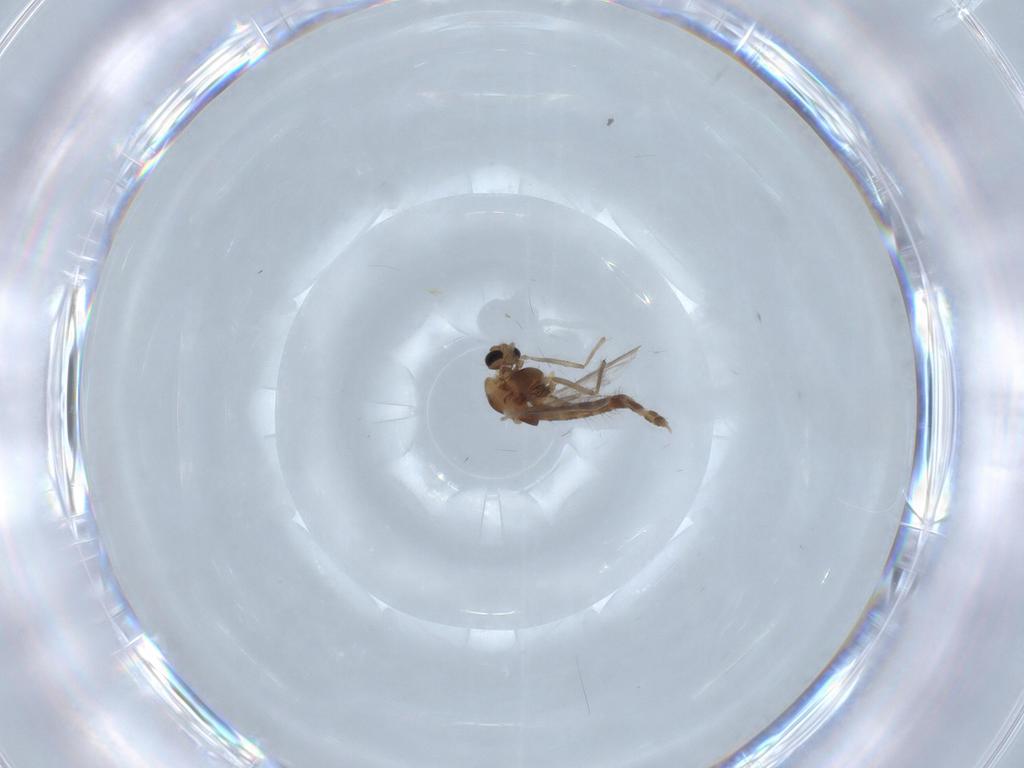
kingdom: Animalia
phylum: Arthropoda
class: Insecta
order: Diptera
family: Chironomidae
